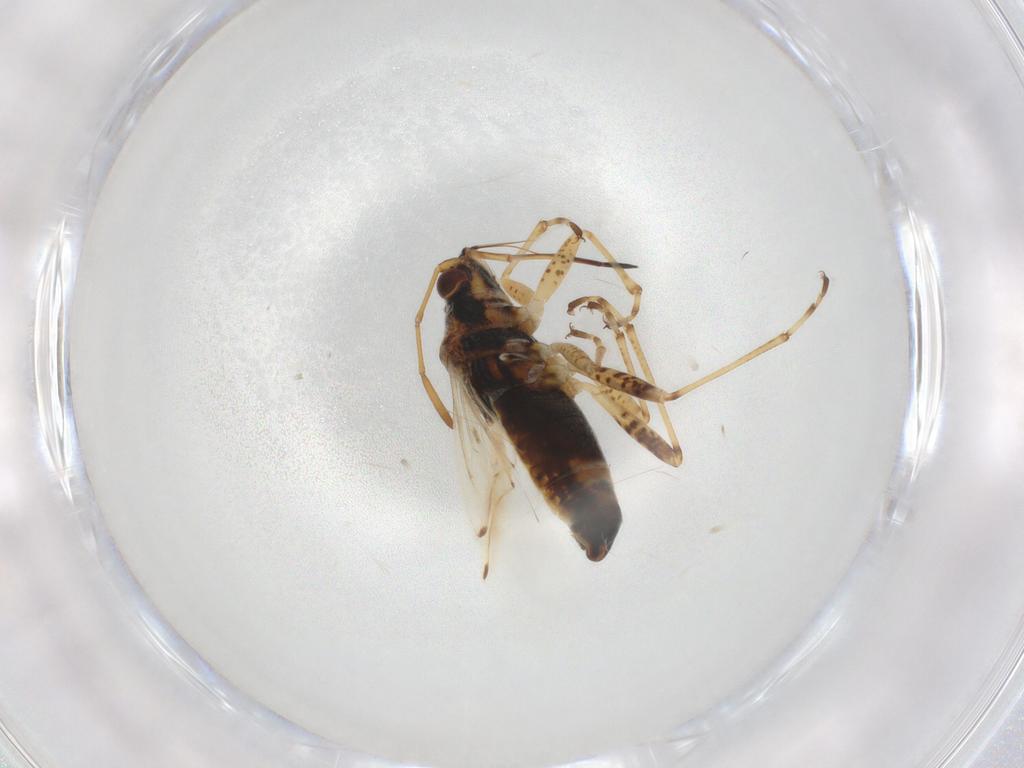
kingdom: Animalia
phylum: Arthropoda
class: Insecta
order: Hemiptera
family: Lygaeidae
